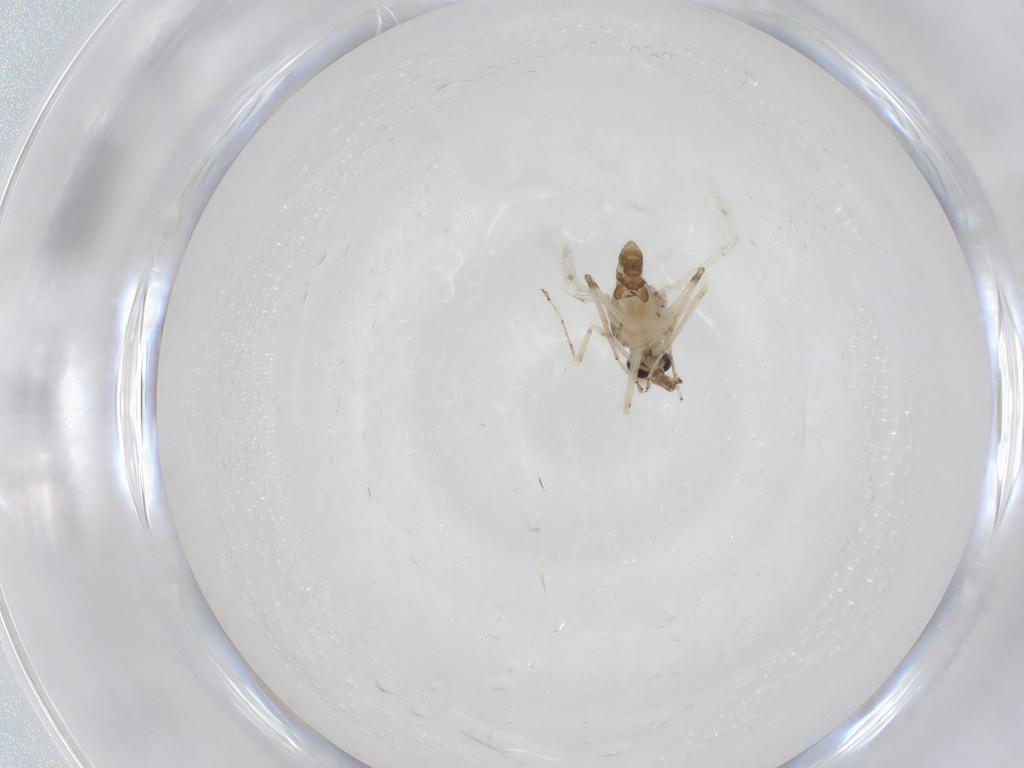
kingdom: Animalia
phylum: Arthropoda
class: Insecta
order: Diptera
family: Ceratopogonidae
